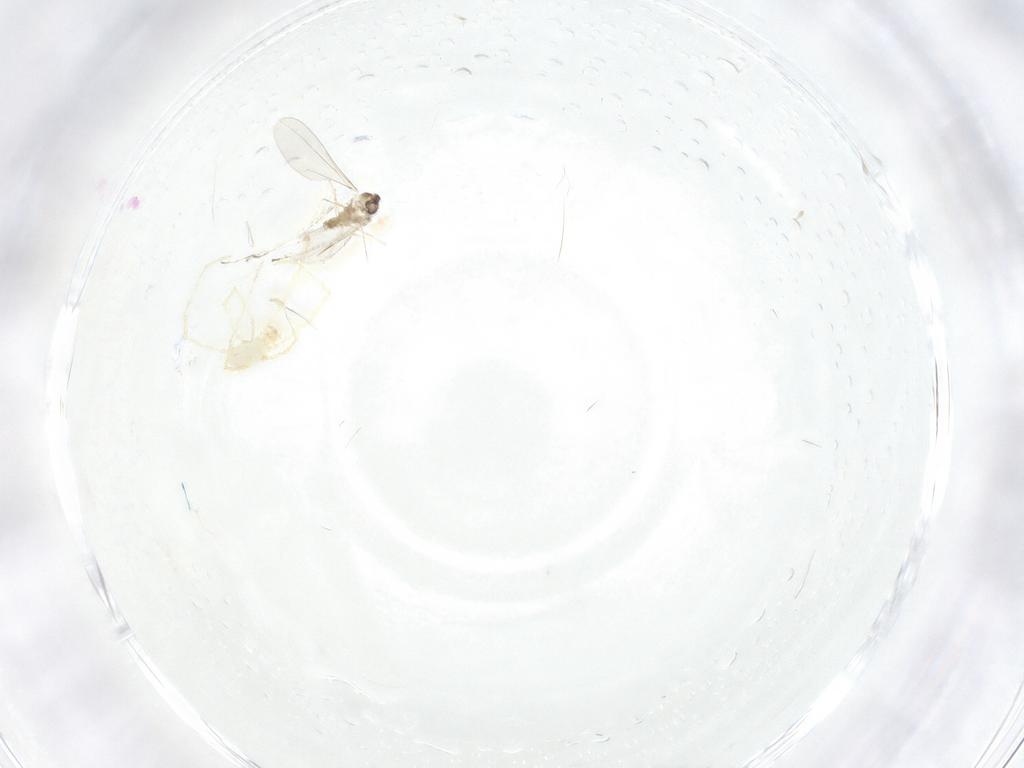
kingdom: Animalia
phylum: Arthropoda
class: Insecta
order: Diptera
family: Cecidomyiidae
